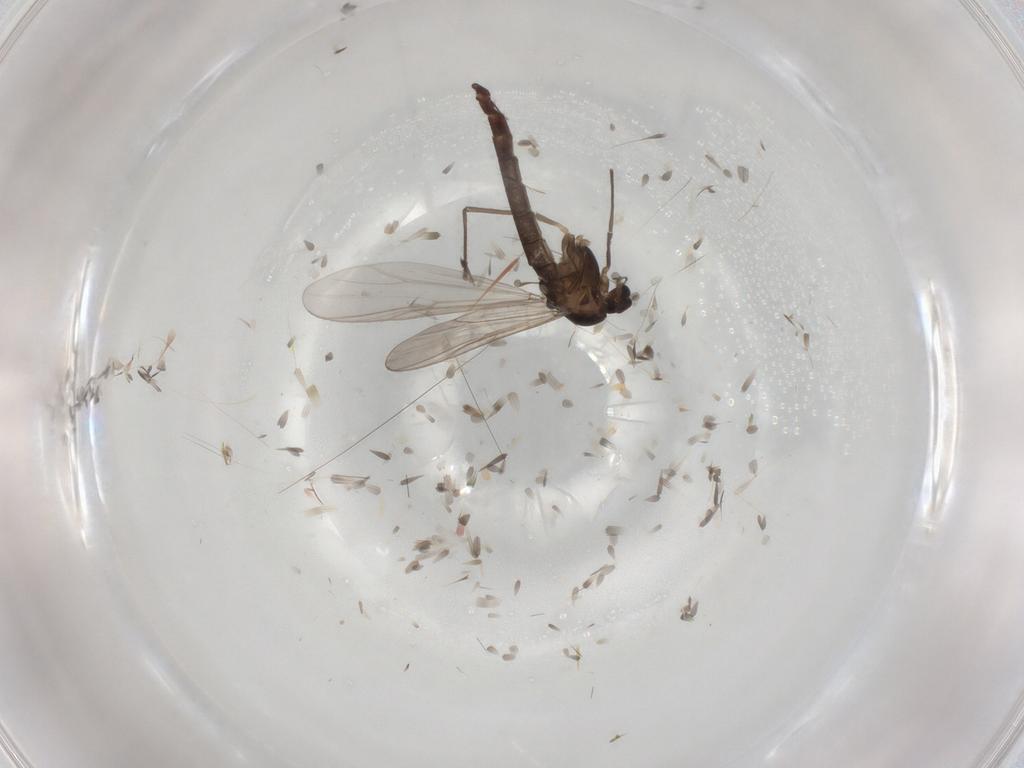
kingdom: Animalia
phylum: Arthropoda
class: Insecta
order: Diptera
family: Chironomidae
